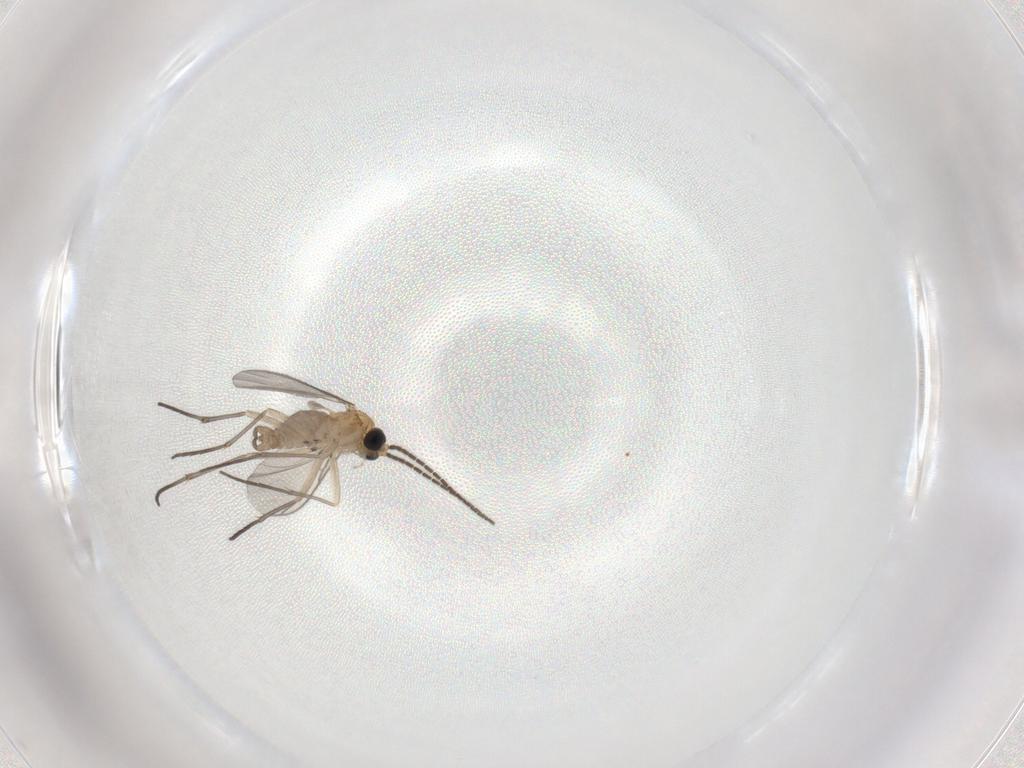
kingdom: Animalia
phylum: Arthropoda
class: Insecta
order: Diptera
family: Cecidomyiidae
